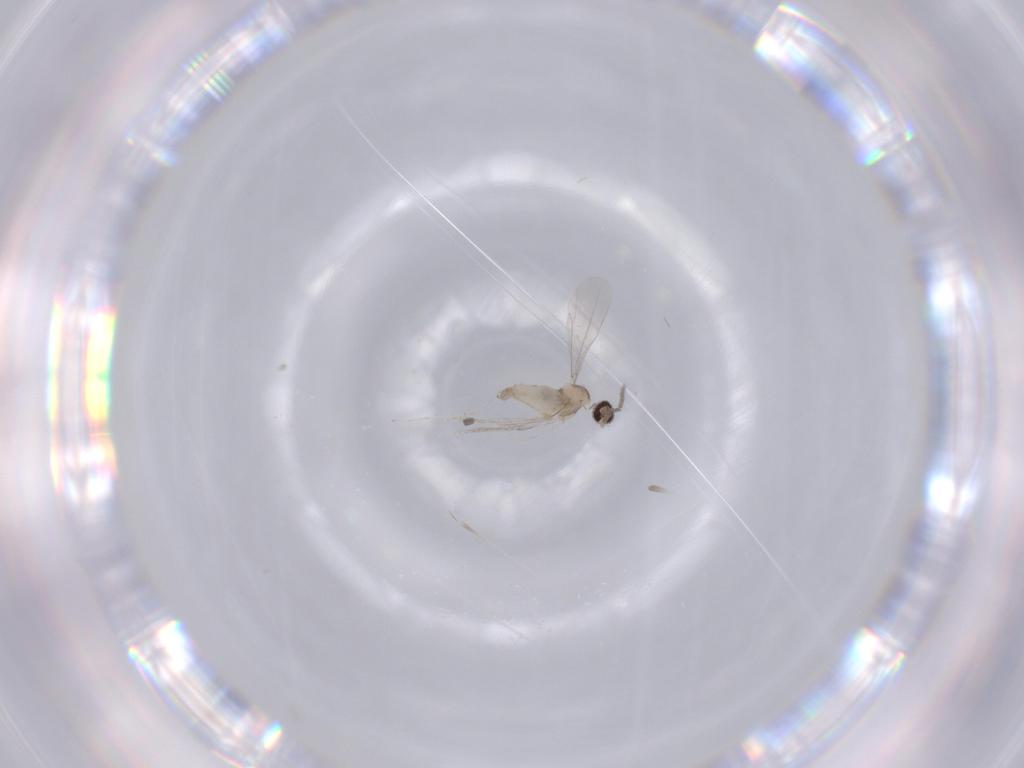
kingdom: Animalia
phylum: Arthropoda
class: Insecta
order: Diptera
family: Cecidomyiidae
